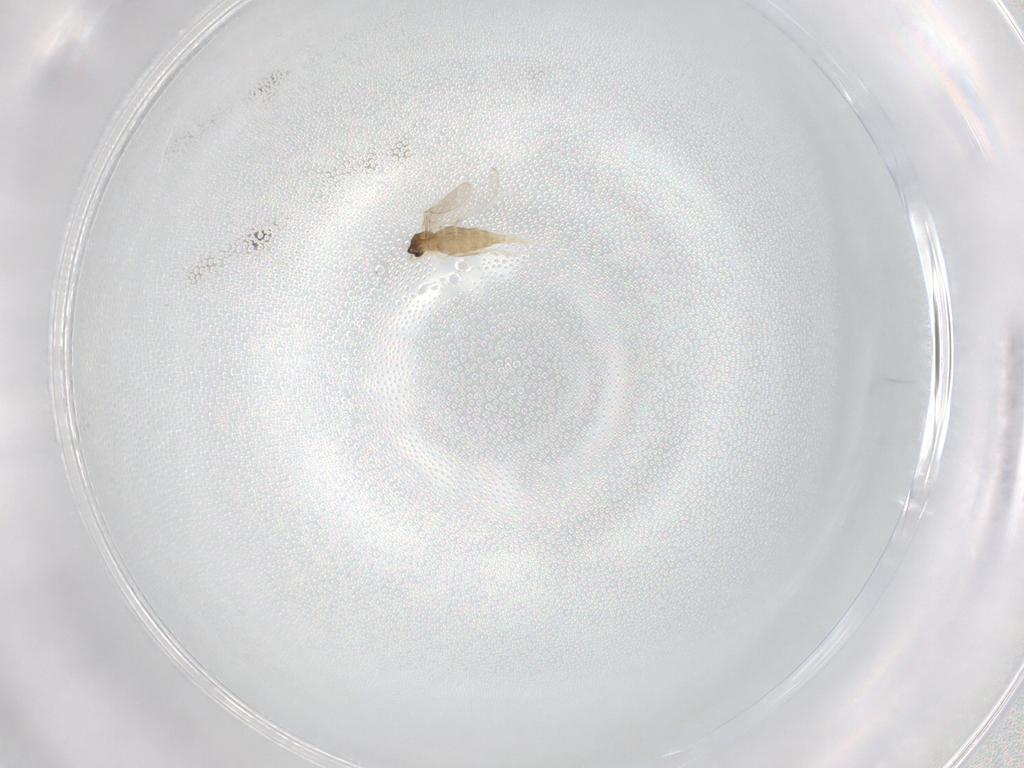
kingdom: Animalia
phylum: Arthropoda
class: Insecta
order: Diptera
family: Cecidomyiidae
